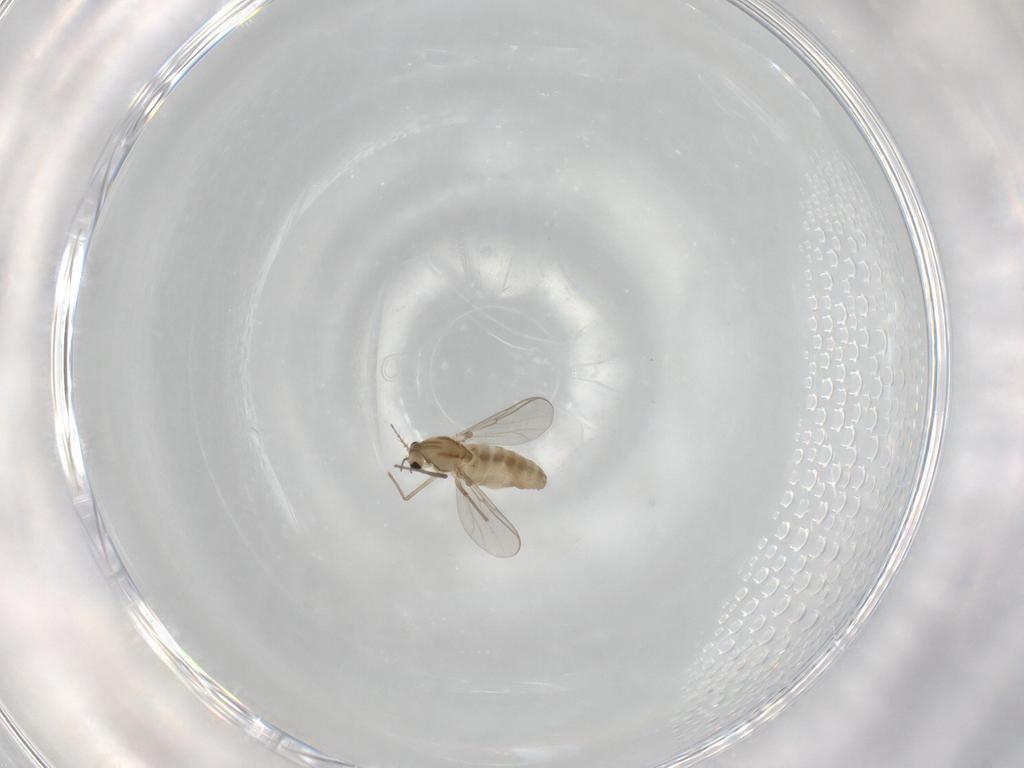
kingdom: Animalia
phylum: Arthropoda
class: Insecta
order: Diptera
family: Chironomidae
